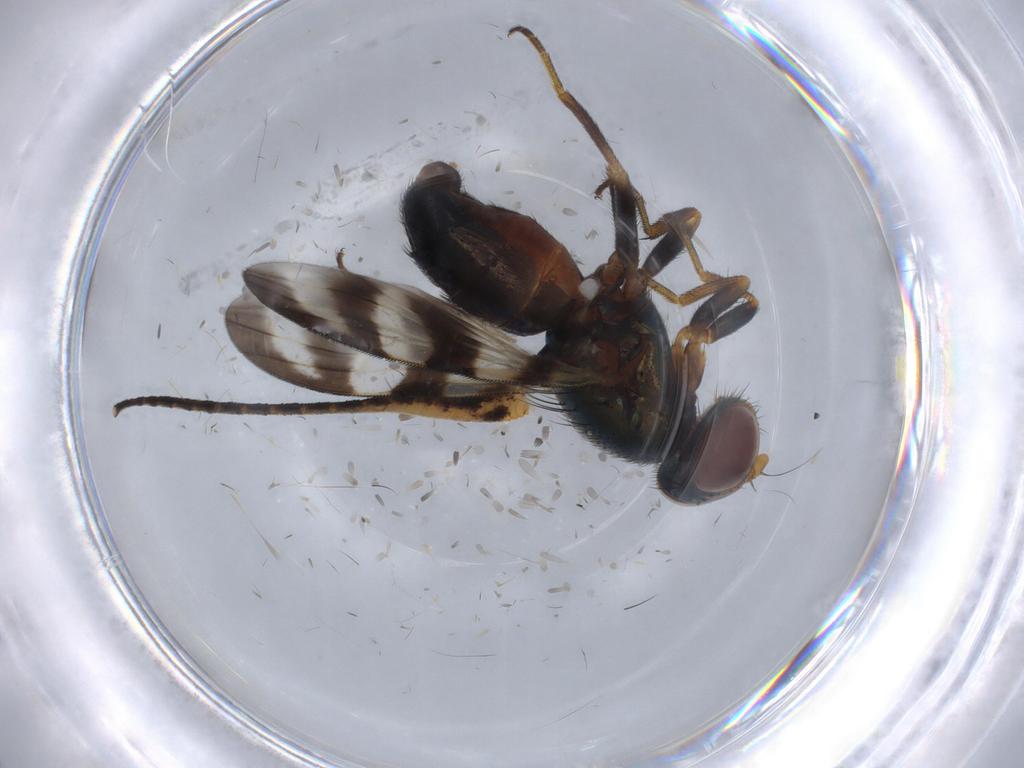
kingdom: Animalia
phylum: Arthropoda
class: Insecta
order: Diptera
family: Ceratopogonidae
